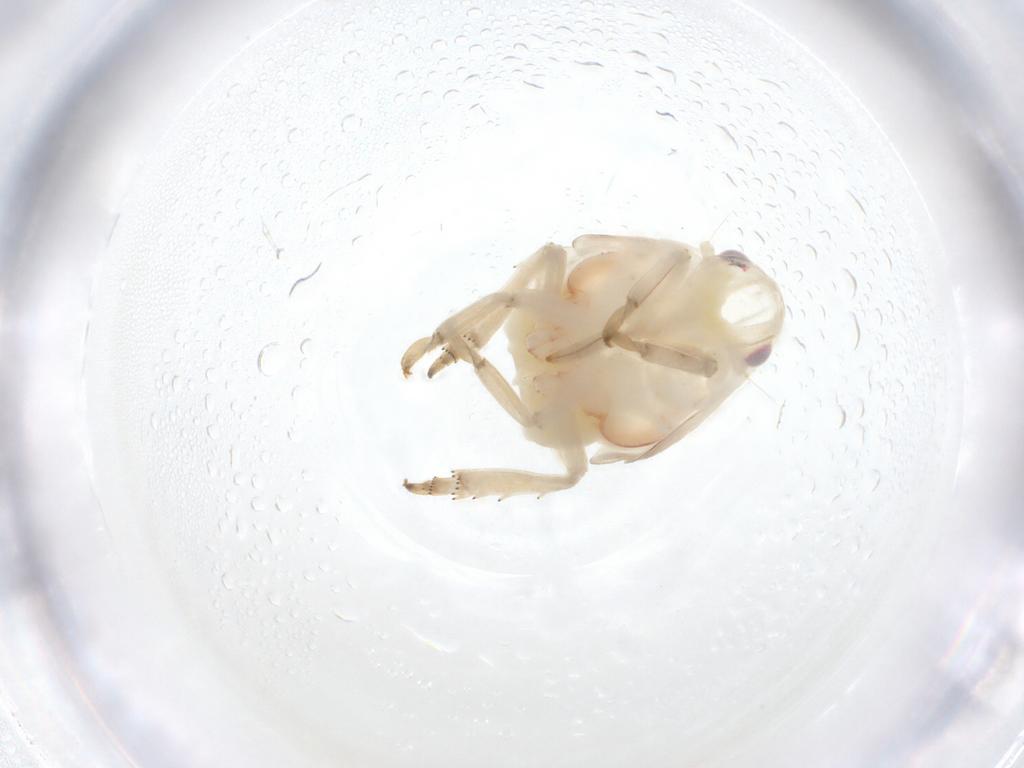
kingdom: Animalia
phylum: Arthropoda
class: Insecta
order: Hemiptera
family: Flatidae
